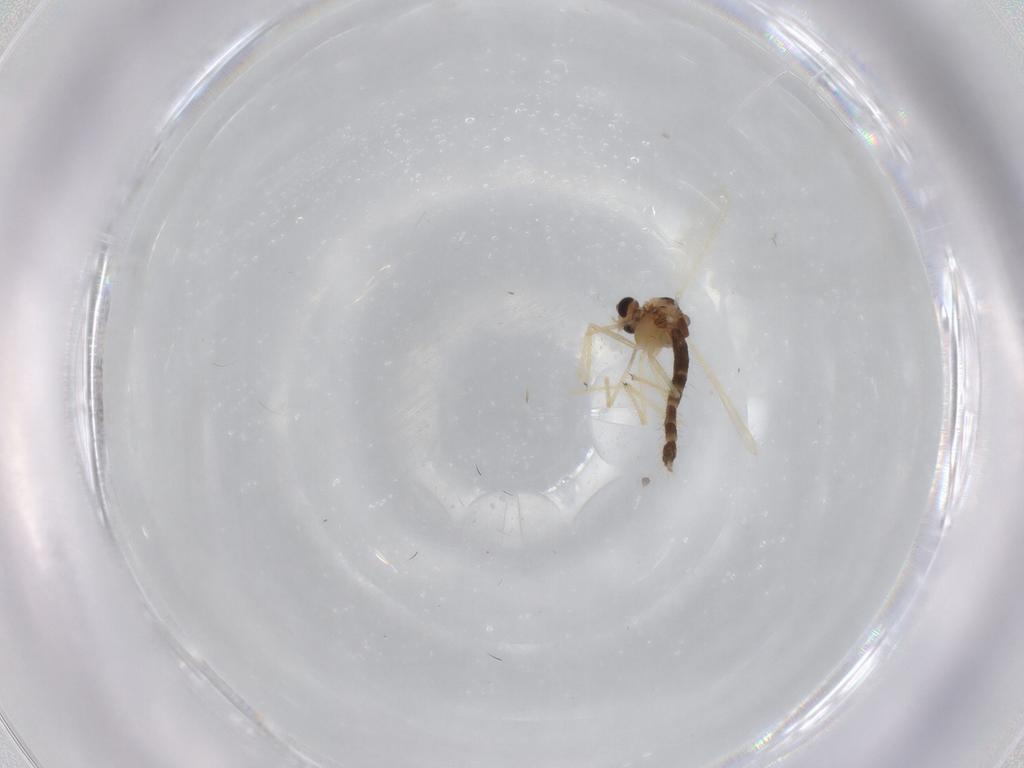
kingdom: Animalia
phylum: Arthropoda
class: Insecta
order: Diptera
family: Chironomidae
